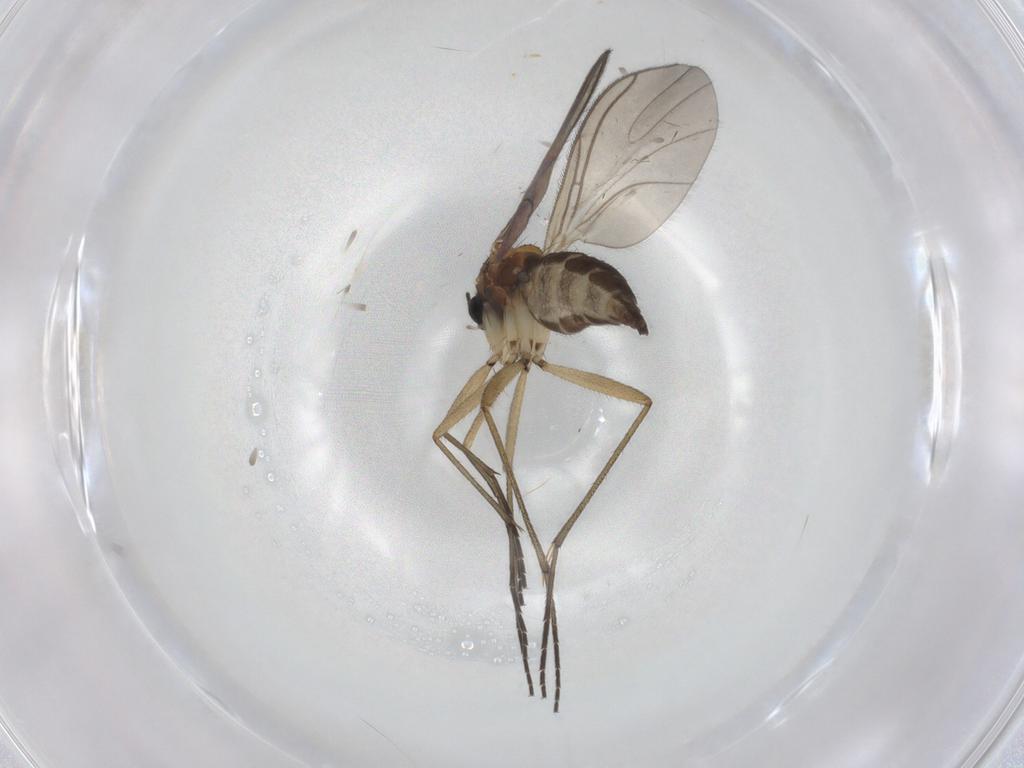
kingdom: Animalia
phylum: Arthropoda
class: Insecta
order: Diptera
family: Sciaridae
